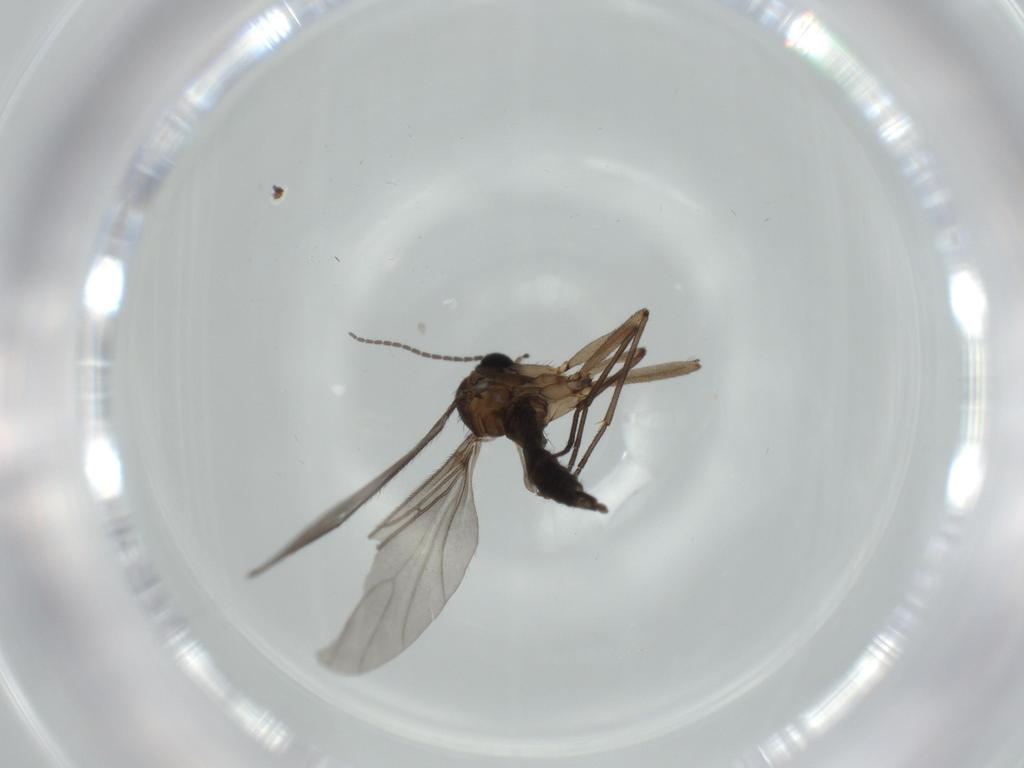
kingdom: Animalia
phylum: Arthropoda
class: Insecta
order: Diptera
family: Sciaridae
